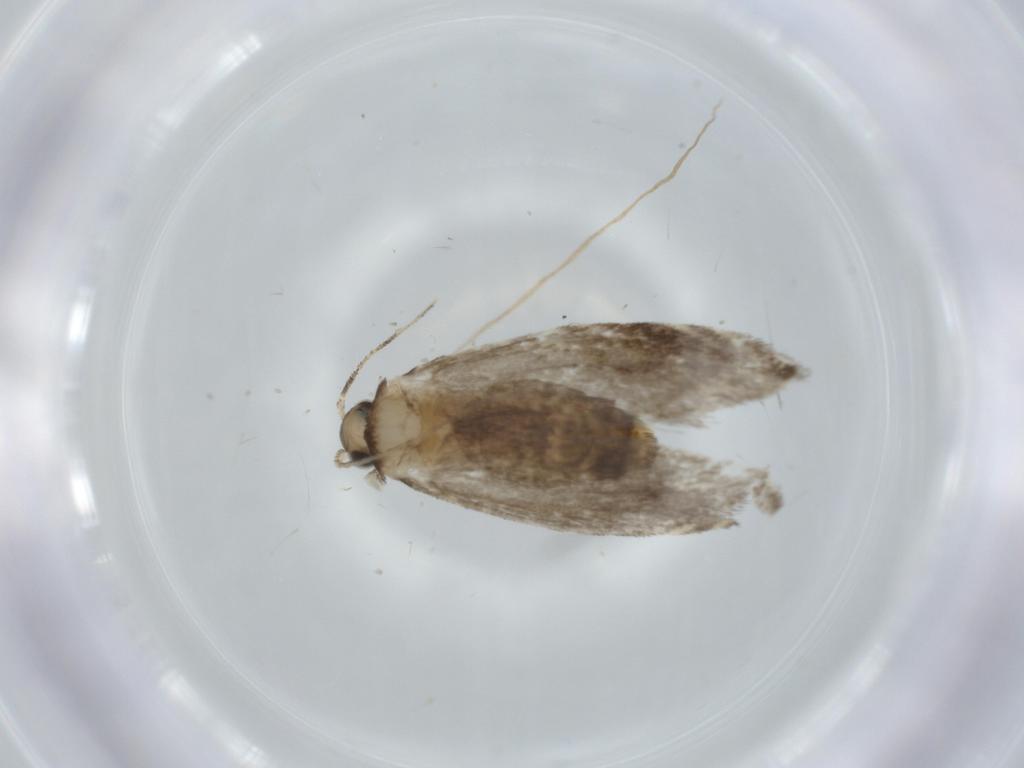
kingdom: Animalia
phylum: Arthropoda
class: Insecta
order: Lepidoptera
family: Tineidae
